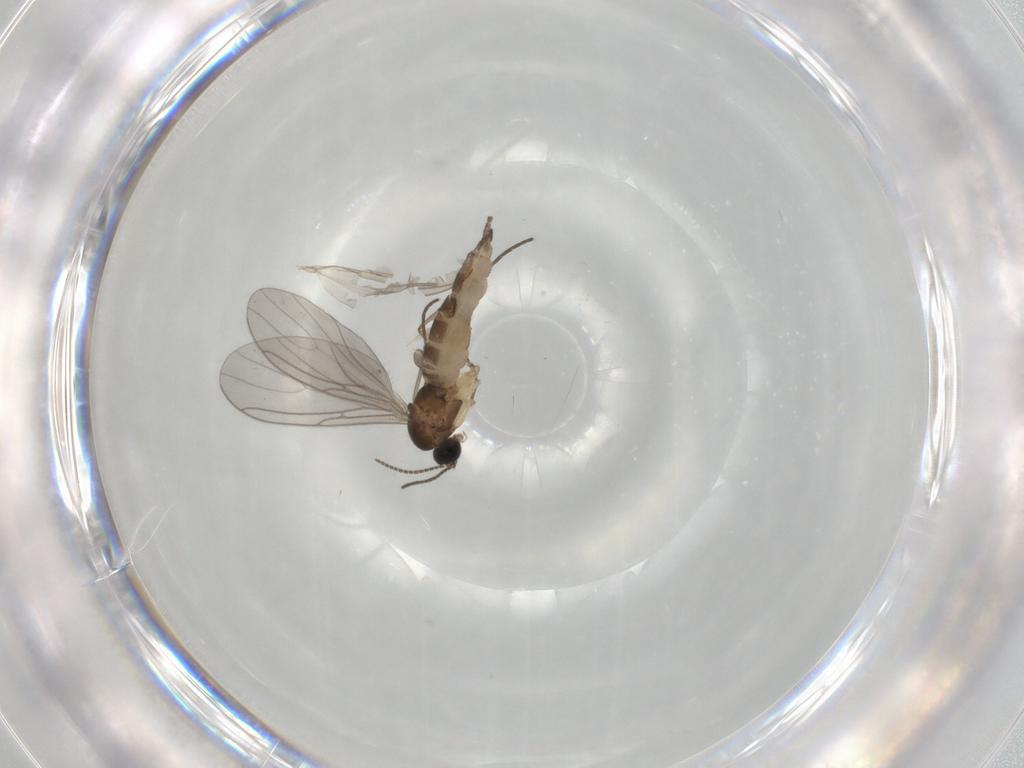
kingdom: Animalia
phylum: Arthropoda
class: Insecta
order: Diptera
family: Sciaridae
